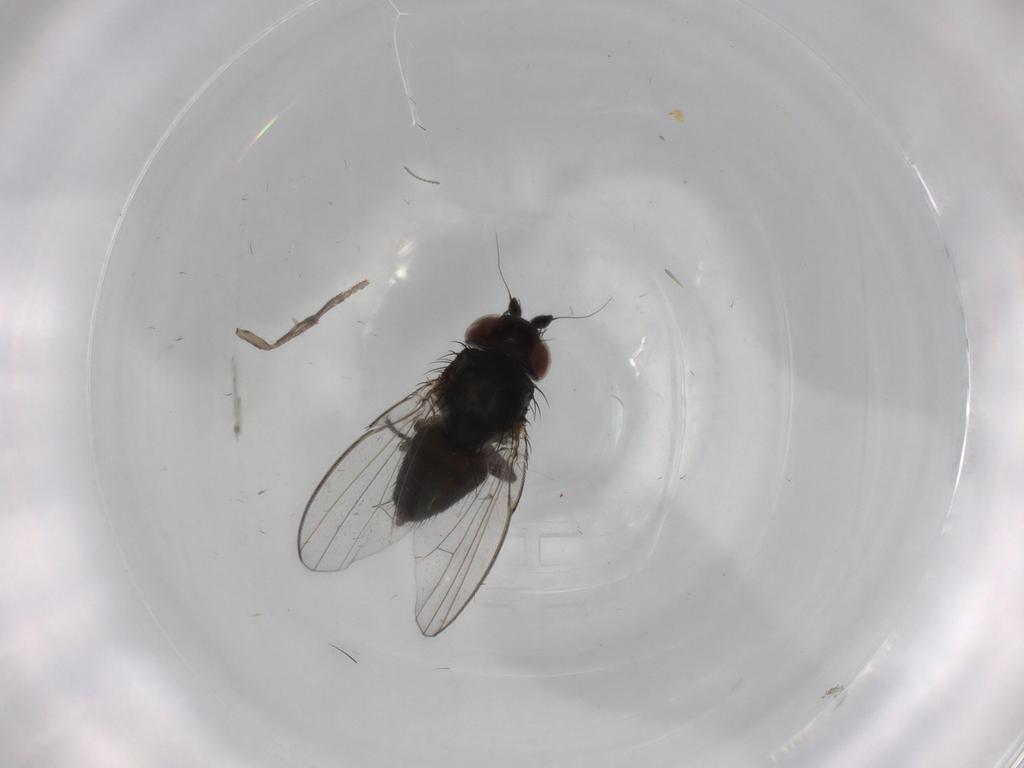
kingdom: Animalia
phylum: Arthropoda
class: Insecta
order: Diptera
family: Milichiidae
